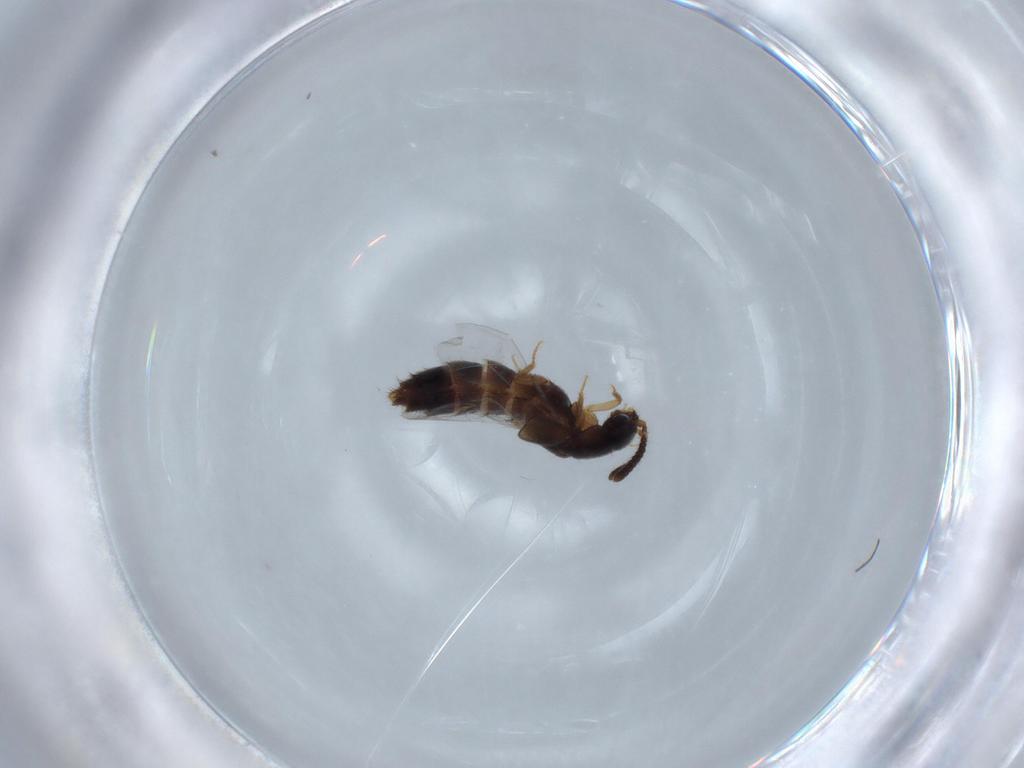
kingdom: Animalia
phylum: Arthropoda
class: Insecta
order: Coleoptera
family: Staphylinidae
